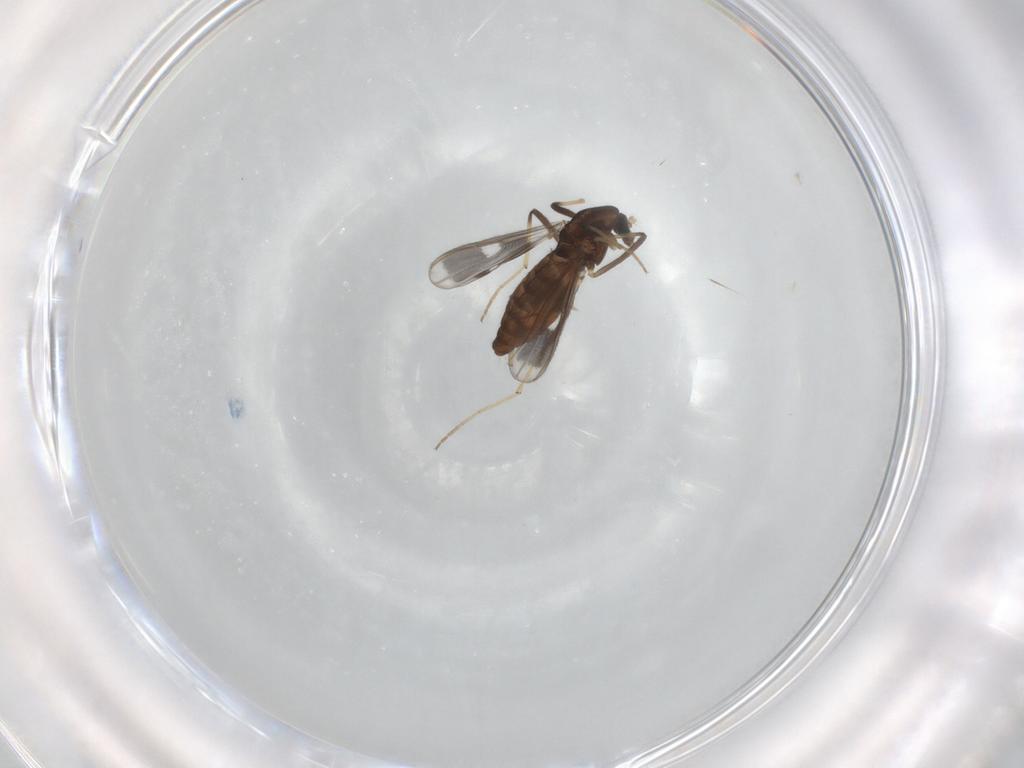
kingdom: Animalia
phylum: Arthropoda
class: Insecta
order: Diptera
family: Chironomidae
